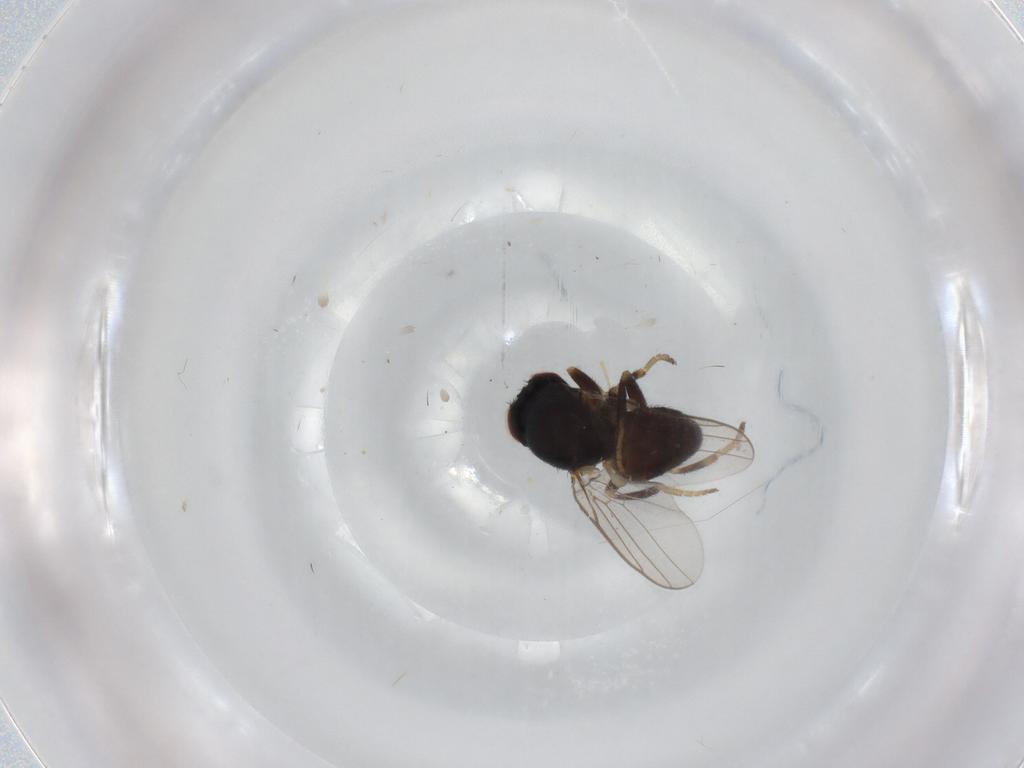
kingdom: Animalia
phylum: Arthropoda
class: Insecta
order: Diptera
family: Chloropidae
